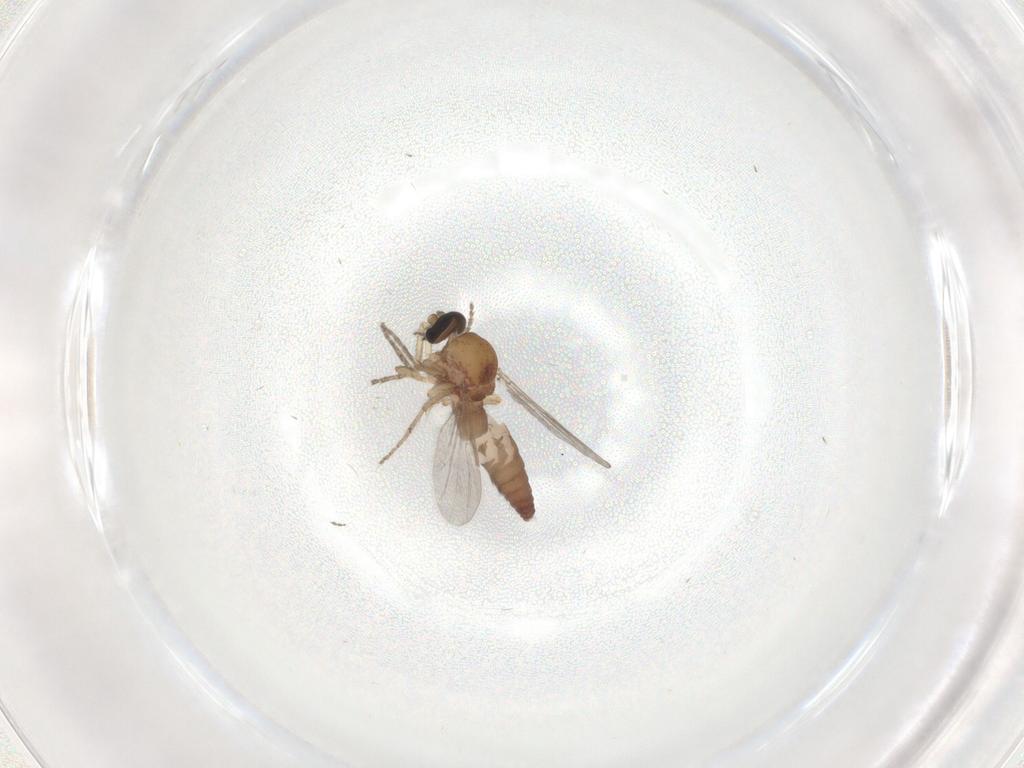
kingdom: Animalia
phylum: Arthropoda
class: Insecta
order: Diptera
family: Ceratopogonidae
